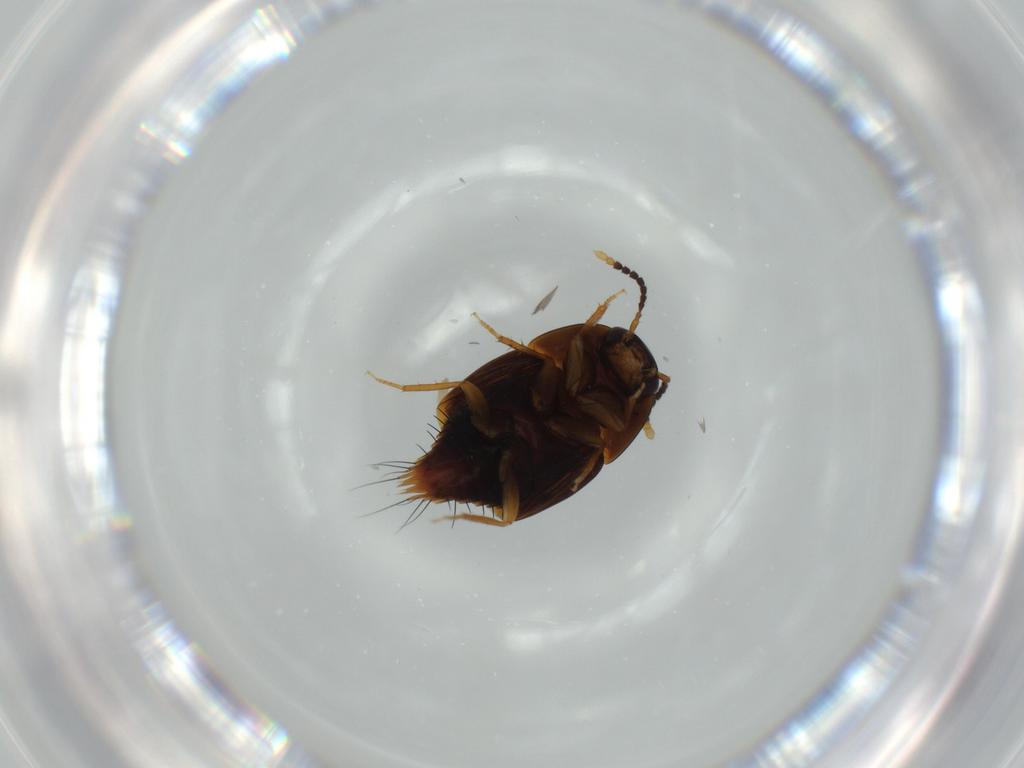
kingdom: Animalia
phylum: Arthropoda
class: Insecta
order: Coleoptera
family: Staphylinidae
